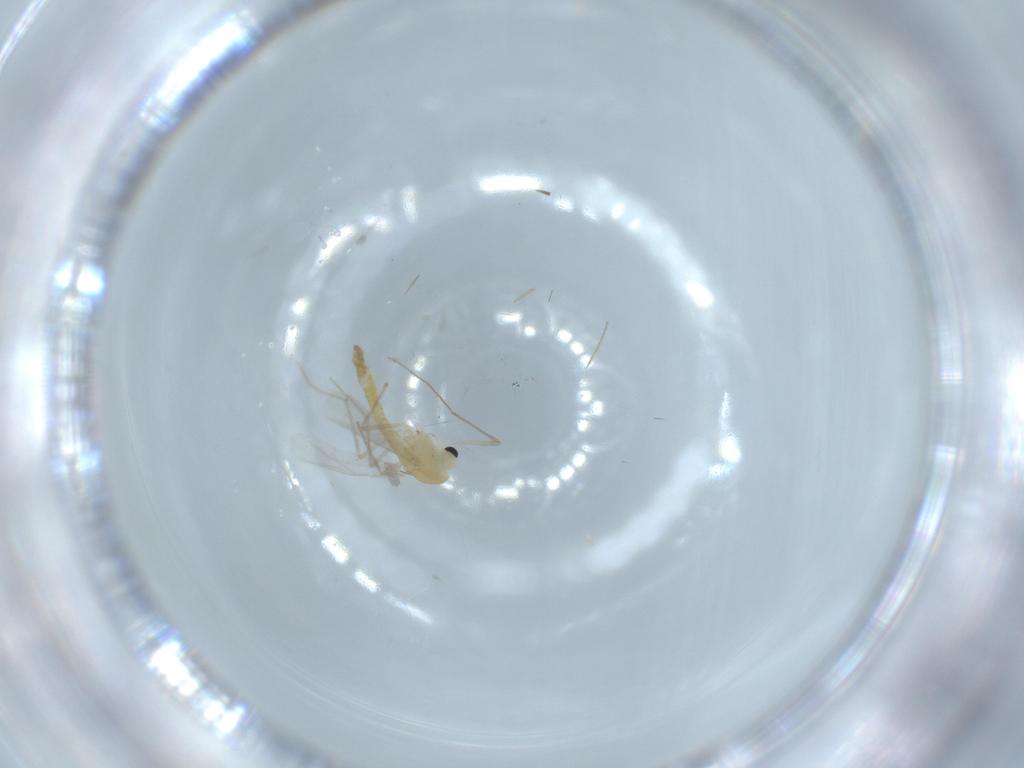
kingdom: Animalia
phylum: Arthropoda
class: Insecta
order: Diptera
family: Chironomidae
